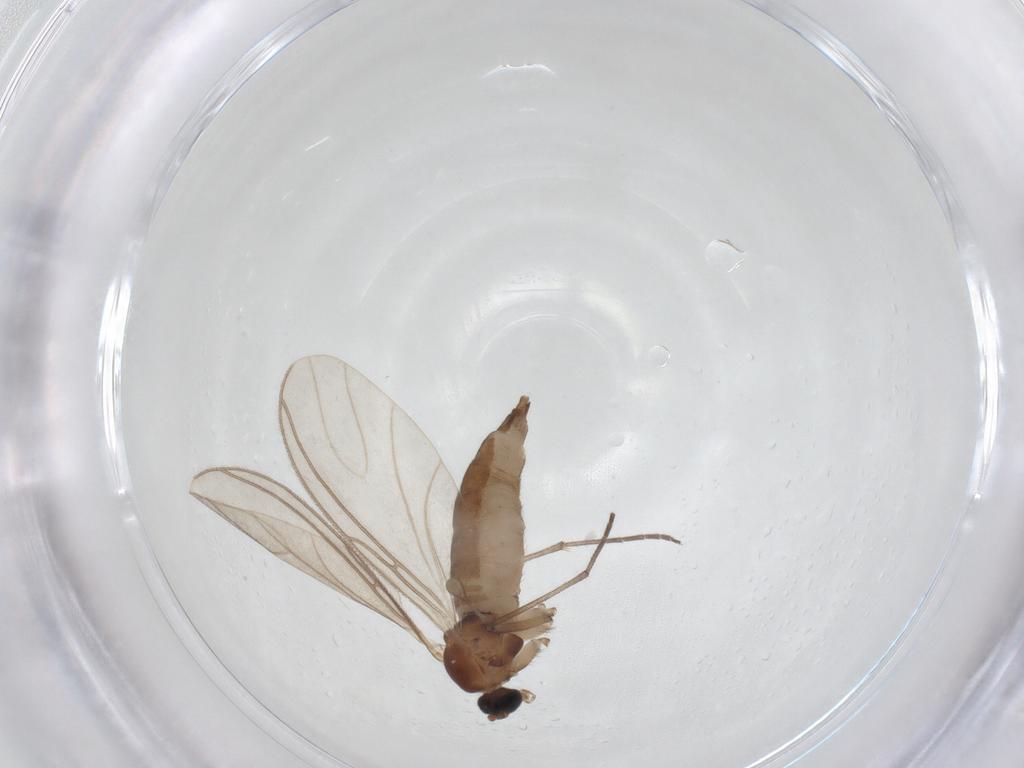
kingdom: Animalia
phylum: Arthropoda
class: Insecta
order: Diptera
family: Sciaridae
